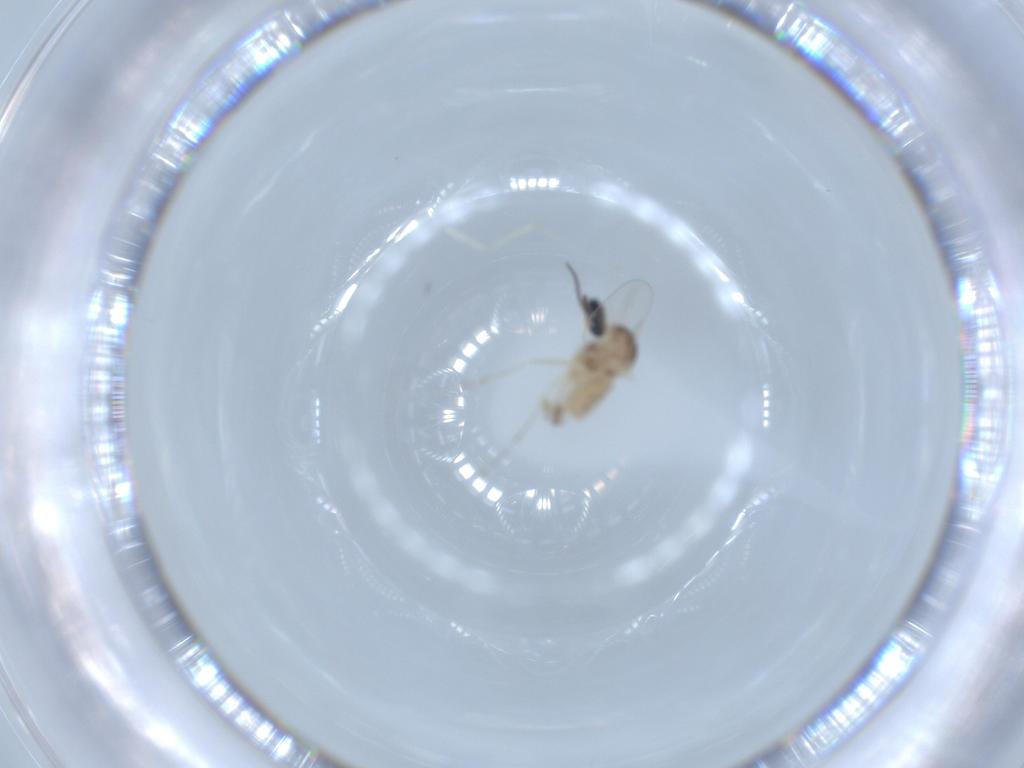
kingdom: Animalia
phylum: Arthropoda
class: Insecta
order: Diptera
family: Cecidomyiidae
